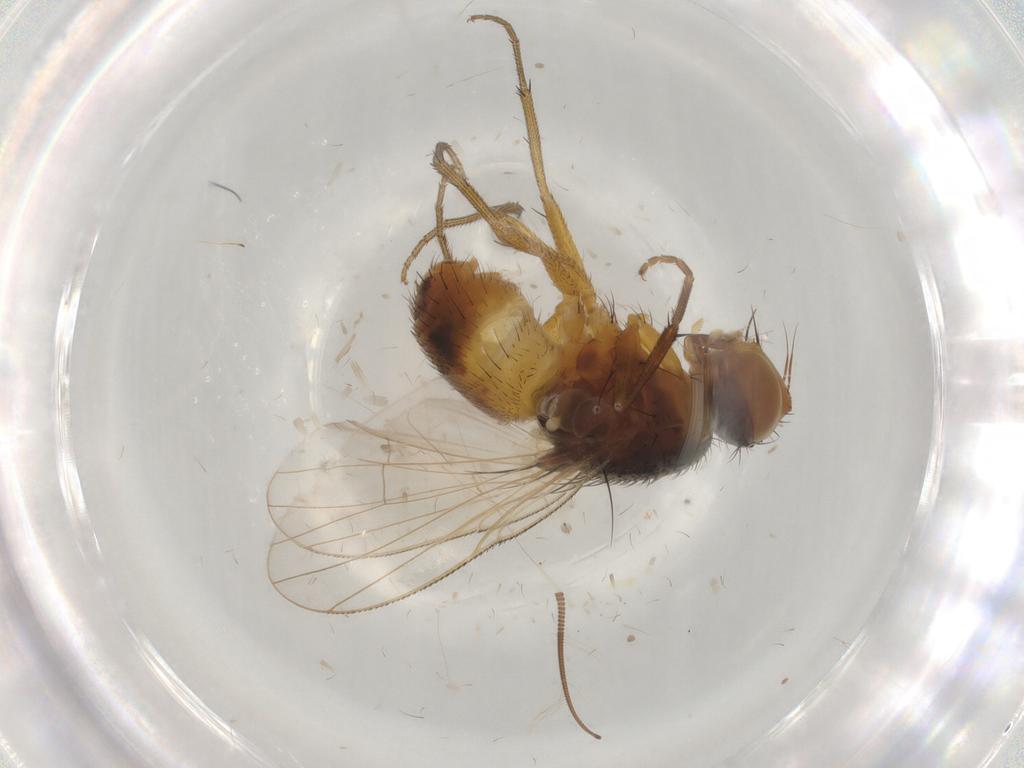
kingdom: Animalia
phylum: Arthropoda
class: Insecta
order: Diptera
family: Muscidae
